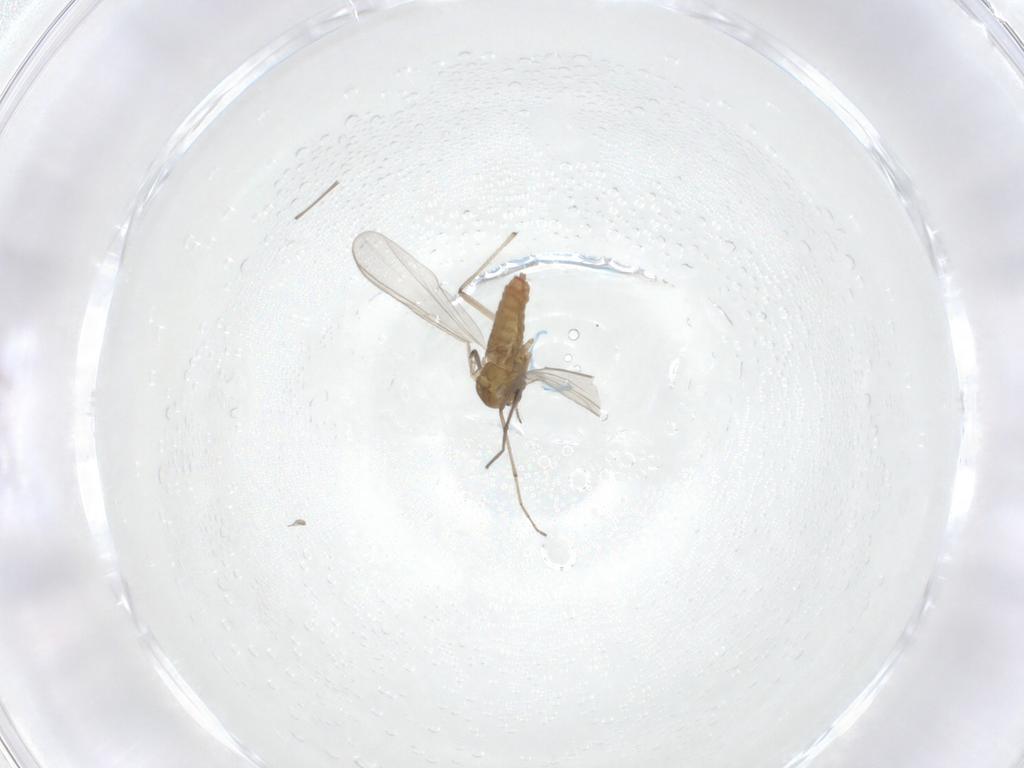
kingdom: Animalia
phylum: Arthropoda
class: Insecta
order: Diptera
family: Chironomidae
